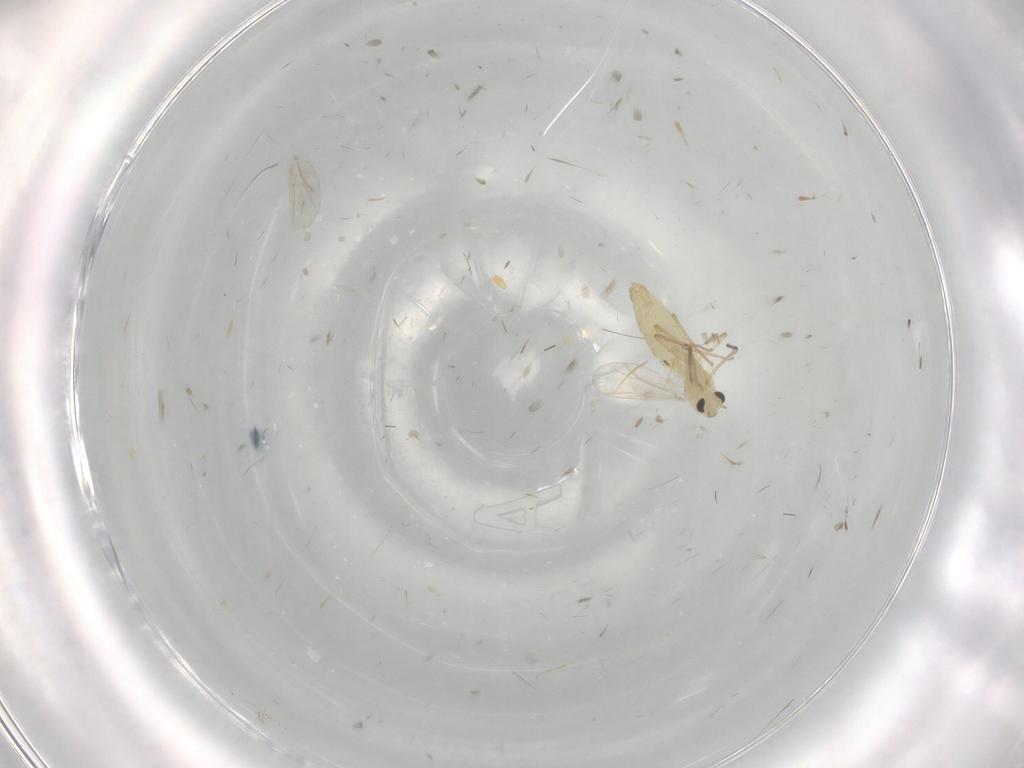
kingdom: Animalia
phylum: Arthropoda
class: Insecta
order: Diptera
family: Chironomidae
